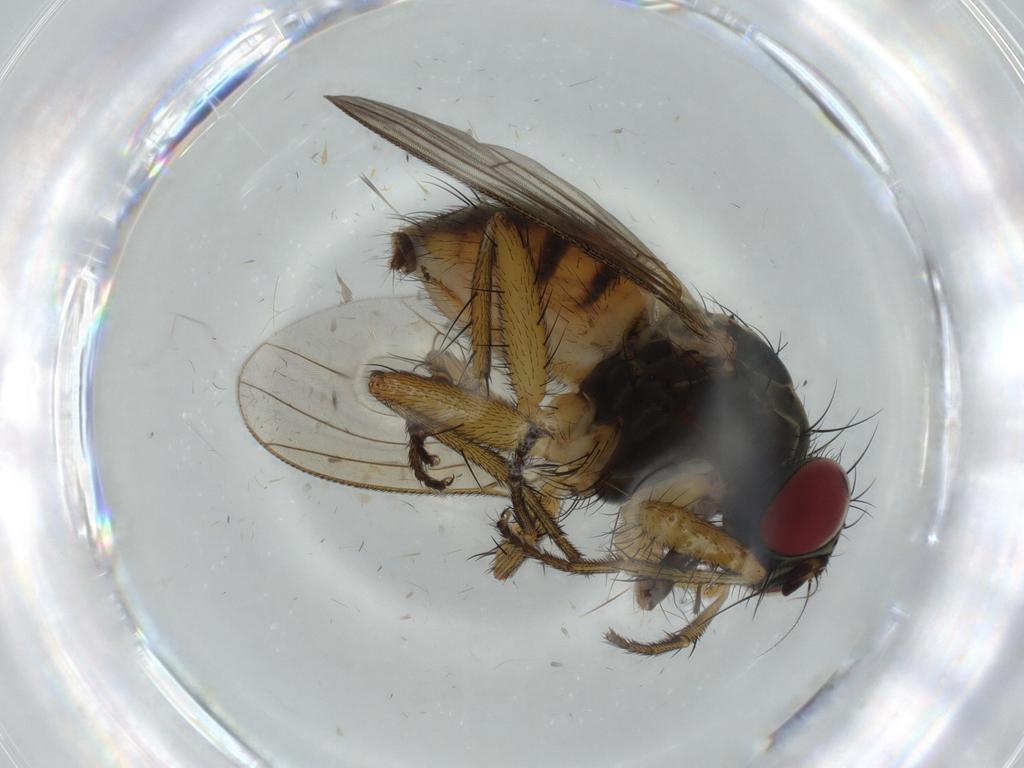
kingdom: Animalia
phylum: Arthropoda
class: Insecta
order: Diptera
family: Muscidae
